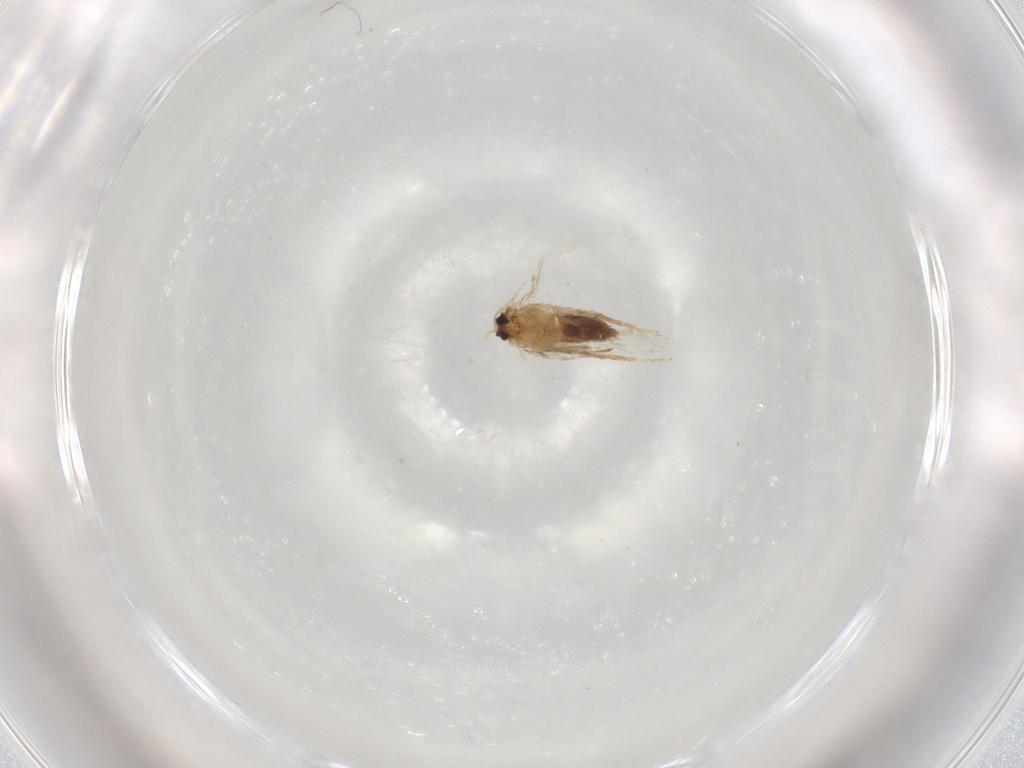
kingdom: Animalia
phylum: Arthropoda
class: Insecta
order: Lepidoptera
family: Nepticulidae
